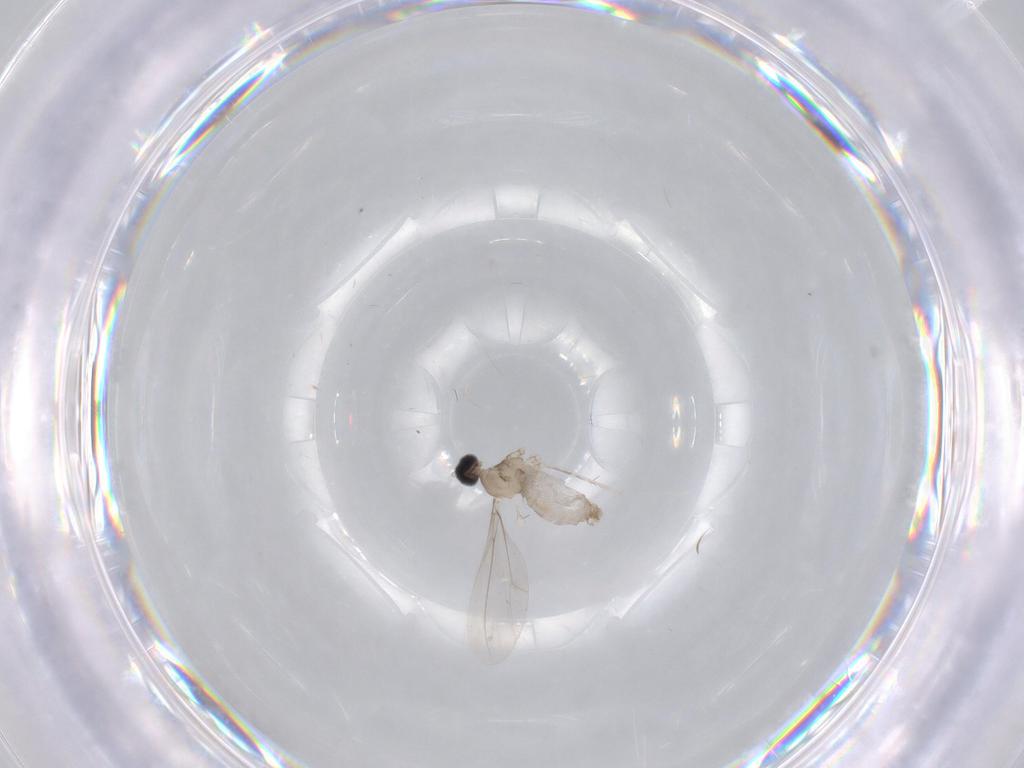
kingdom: Animalia
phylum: Arthropoda
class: Insecta
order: Diptera
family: Cecidomyiidae
